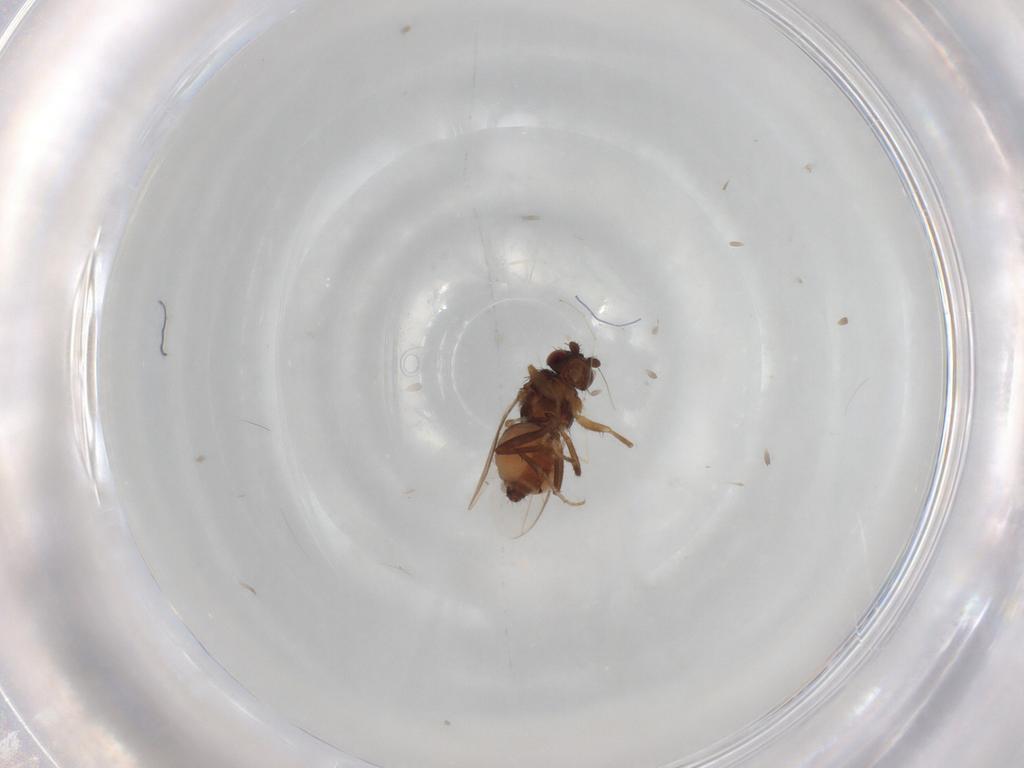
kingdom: Animalia
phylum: Arthropoda
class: Insecta
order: Diptera
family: Sphaeroceridae
